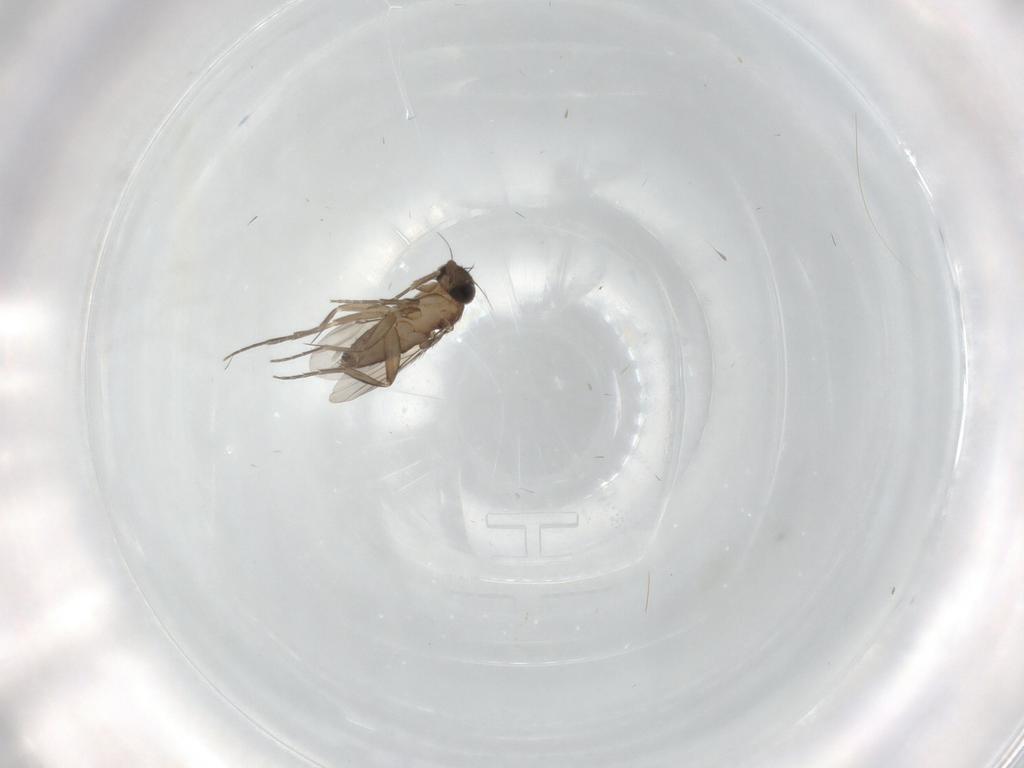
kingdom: Animalia
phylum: Arthropoda
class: Insecta
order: Diptera
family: Phoridae
